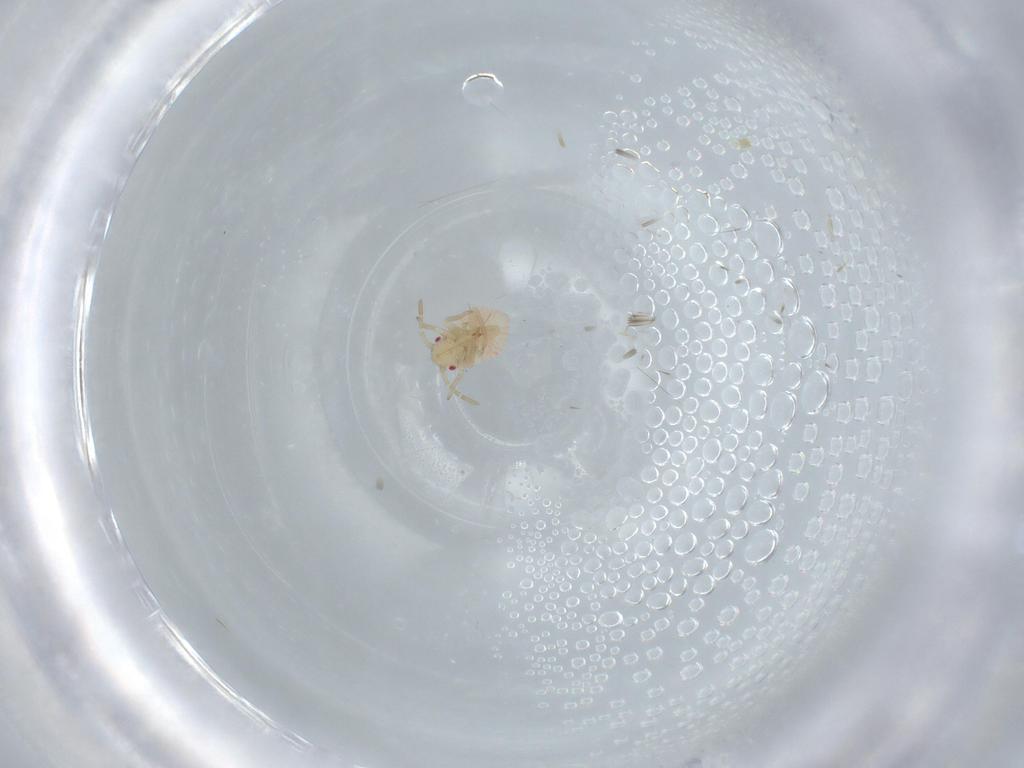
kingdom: Animalia
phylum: Arthropoda
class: Insecta
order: Hemiptera
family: Miridae
